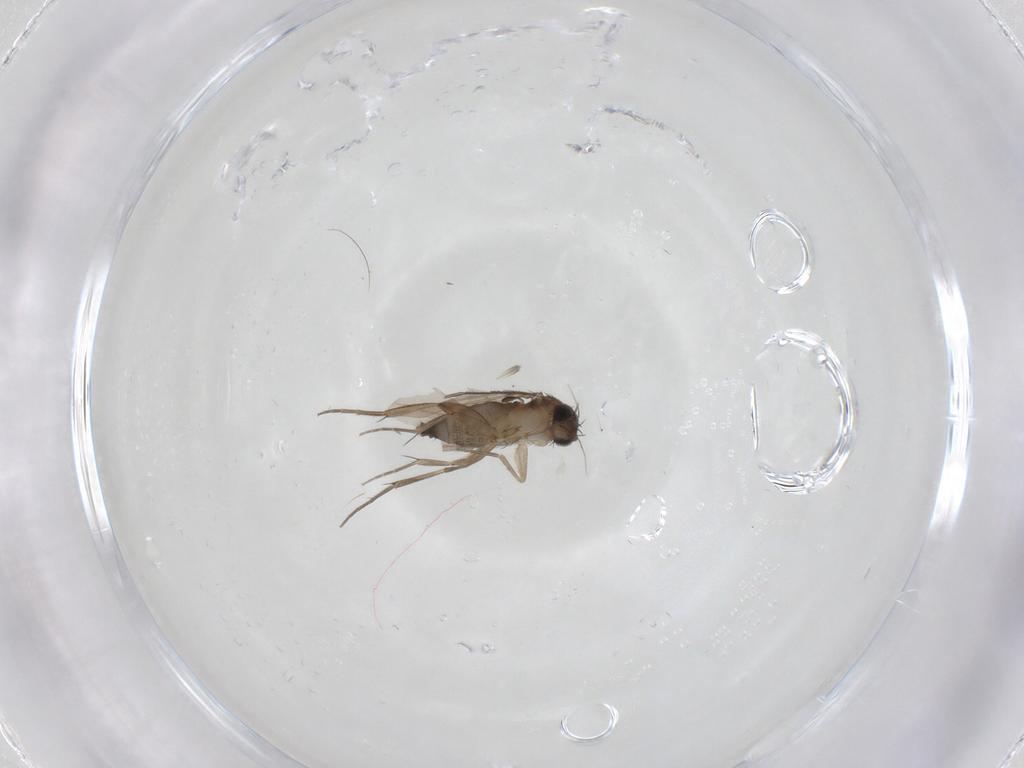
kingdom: Animalia
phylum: Arthropoda
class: Insecta
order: Diptera
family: Phoridae
